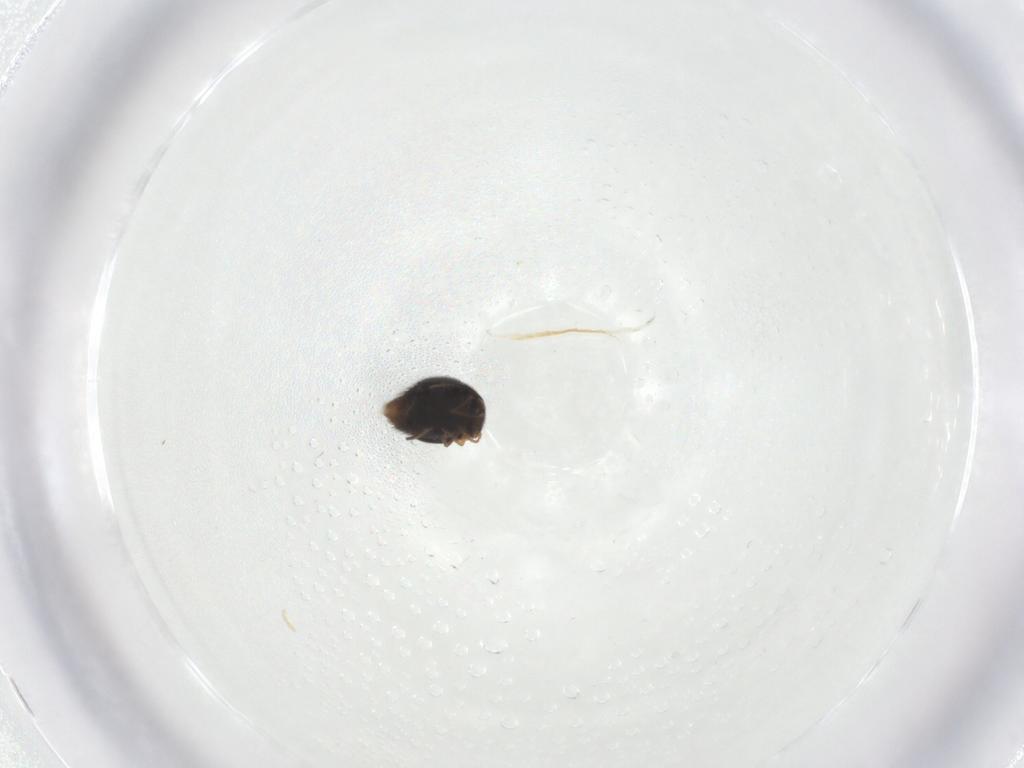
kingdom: Animalia
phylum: Arthropoda
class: Insecta
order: Coleoptera
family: Staphylinidae
